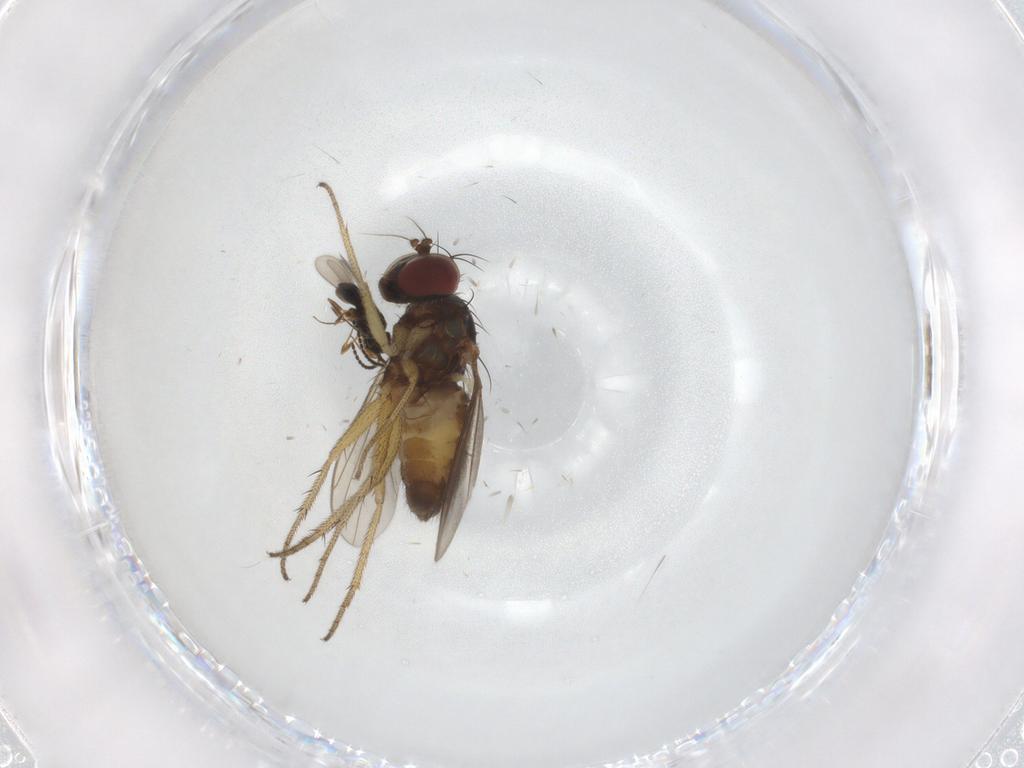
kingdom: Animalia
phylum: Arthropoda
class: Insecta
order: Hymenoptera
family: Scelionidae
